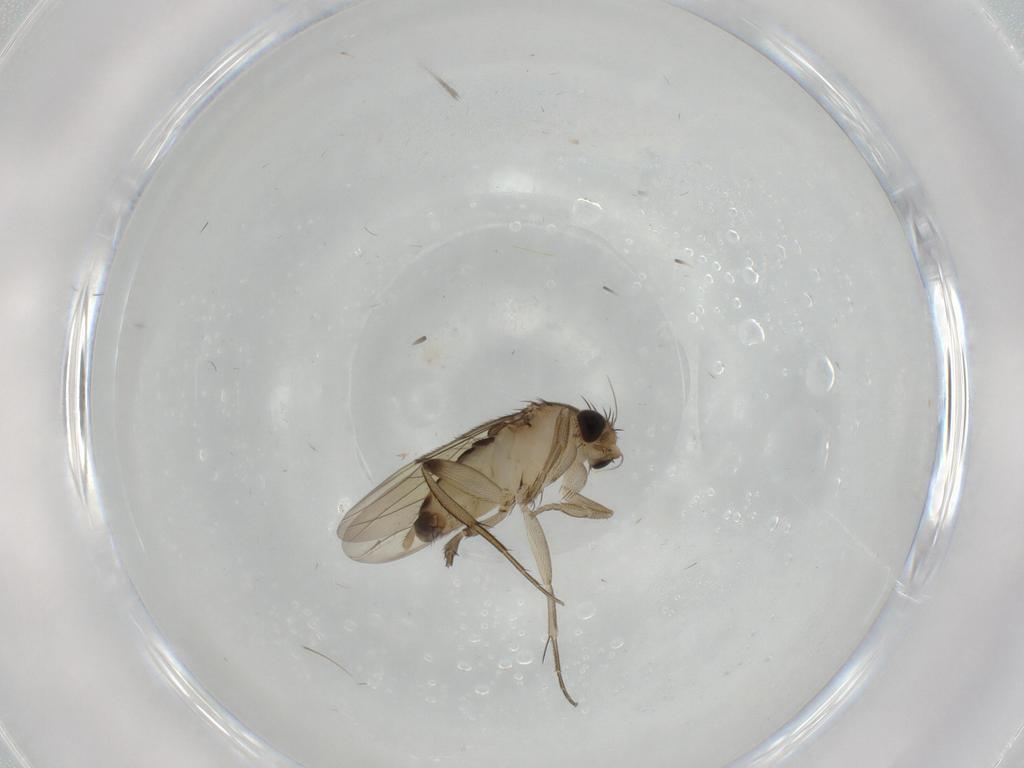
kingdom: Animalia
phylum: Arthropoda
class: Insecta
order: Diptera
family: Phoridae
